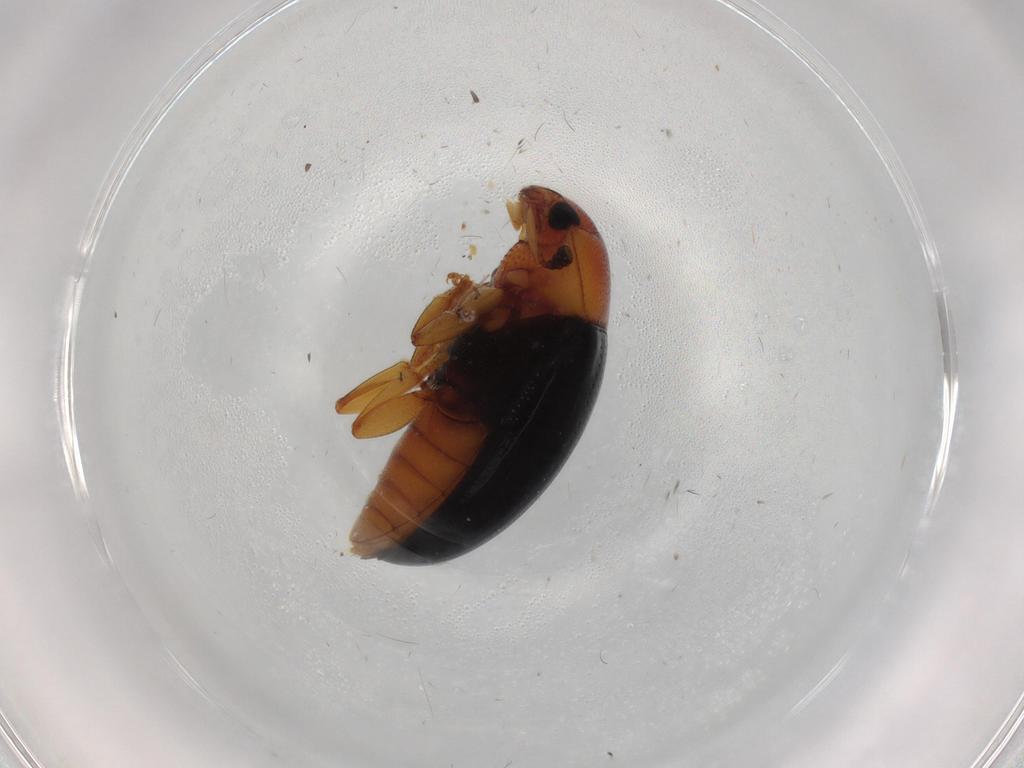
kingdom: Animalia
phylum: Arthropoda
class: Insecta
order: Coleoptera
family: Erotylidae
